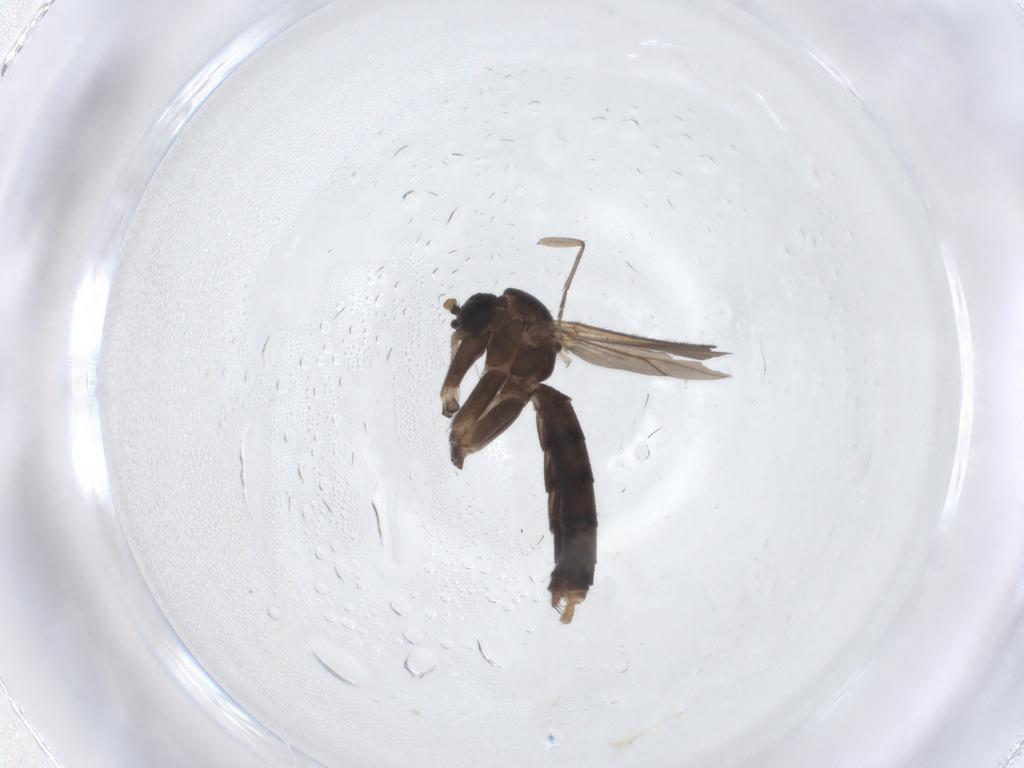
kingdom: Animalia
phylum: Arthropoda
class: Insecta
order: Diptera
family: Mycetophilidae
